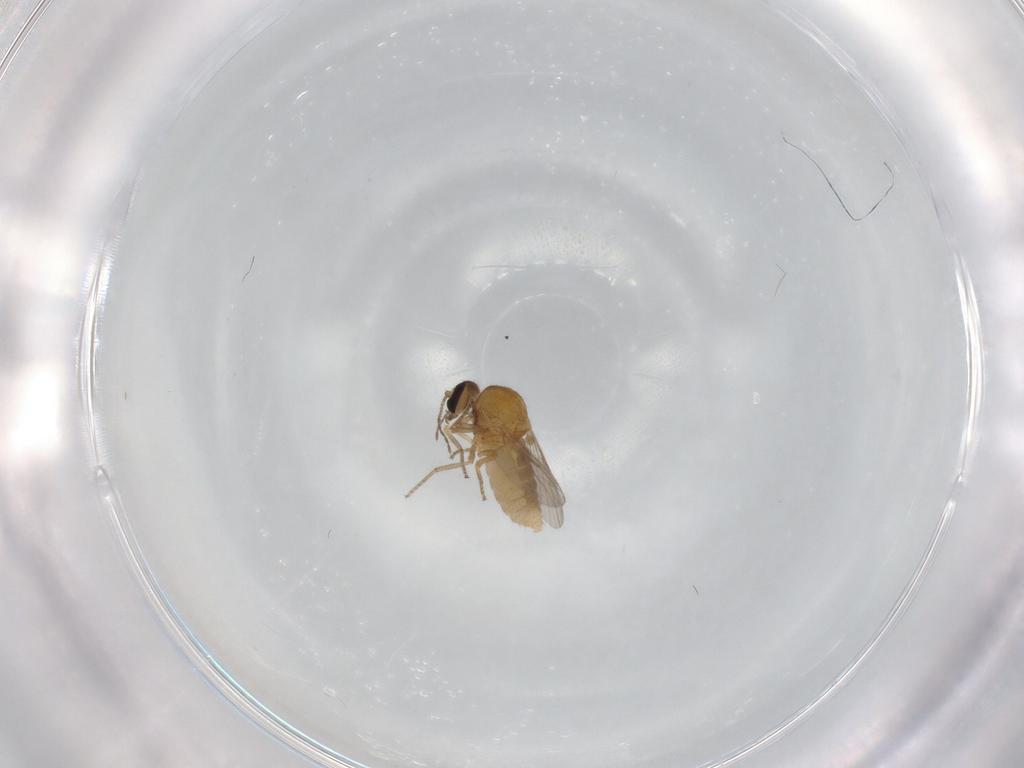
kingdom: Animalia
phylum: Arthropoda
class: Insecta
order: Diptera
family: Ceratopogonidae
